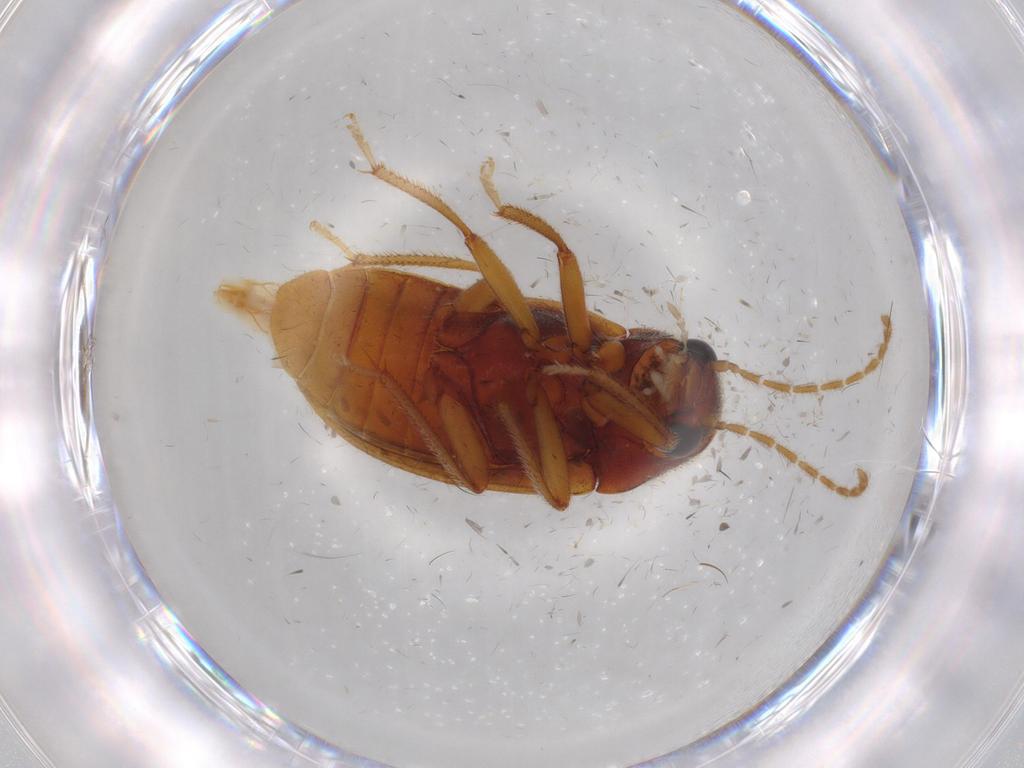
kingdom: Animalia
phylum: Arthropoda
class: Insecta
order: Coleoptera
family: Ptilodactylidae
